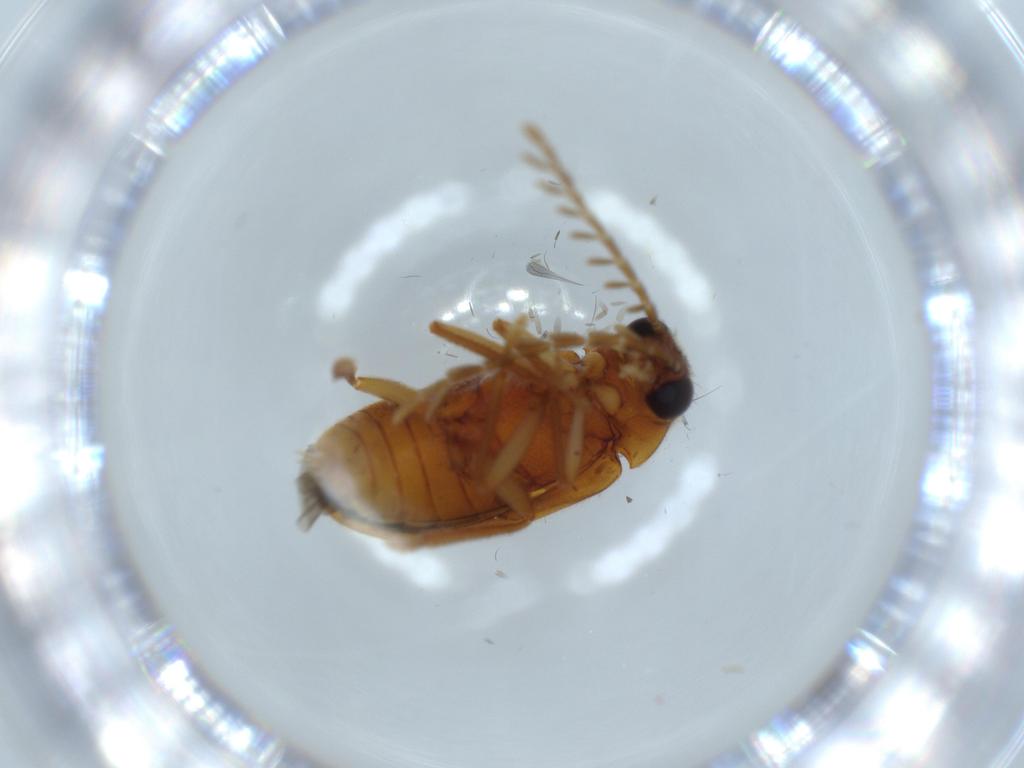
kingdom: Animalia
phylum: Arthropoda
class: Insecta
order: Coleoptera
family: Ptilodactylidae
